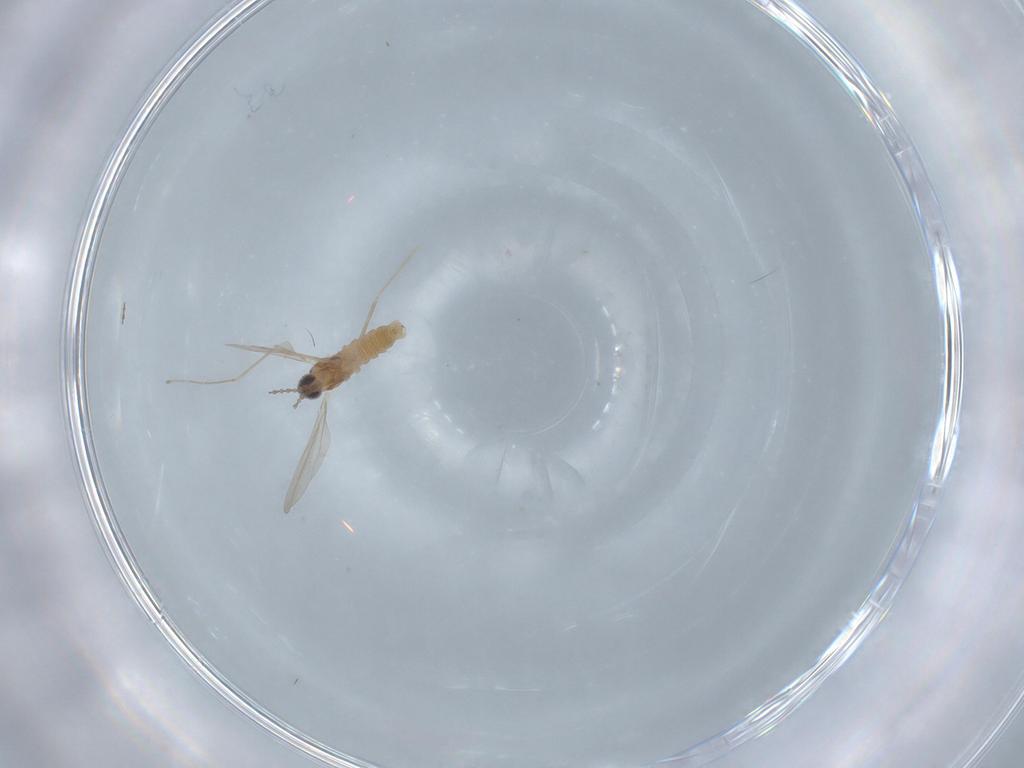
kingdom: Animalia
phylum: Arthropoda
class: Insecta
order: Diptera
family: Cecidomyiidae
